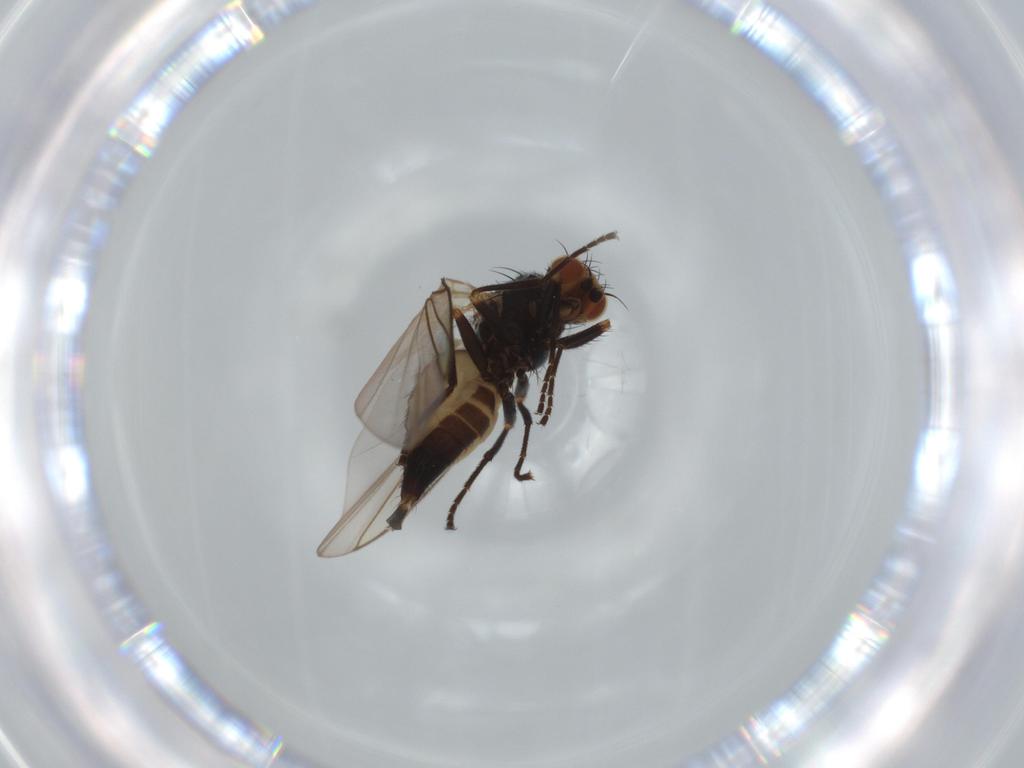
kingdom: Animalia
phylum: Arthropoda
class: Insecta
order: Diptera
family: Agromyzidae
